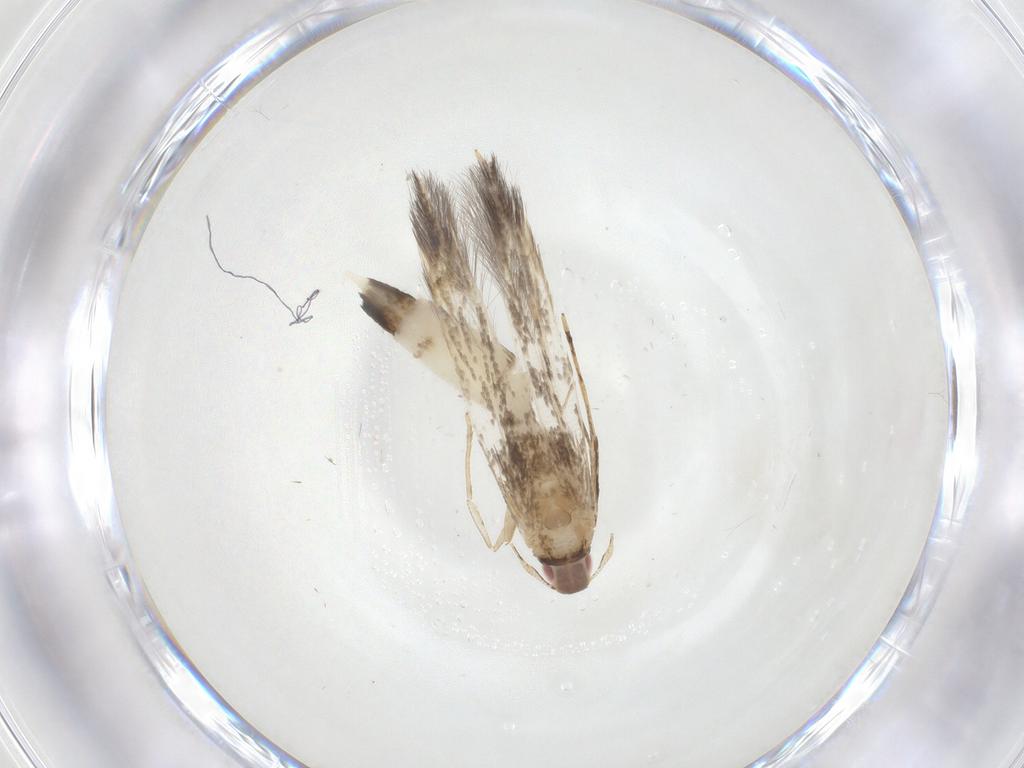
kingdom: Animalia
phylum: Arthropoda
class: Insecta
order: Lepidoptera
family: Cosmopterigidae
